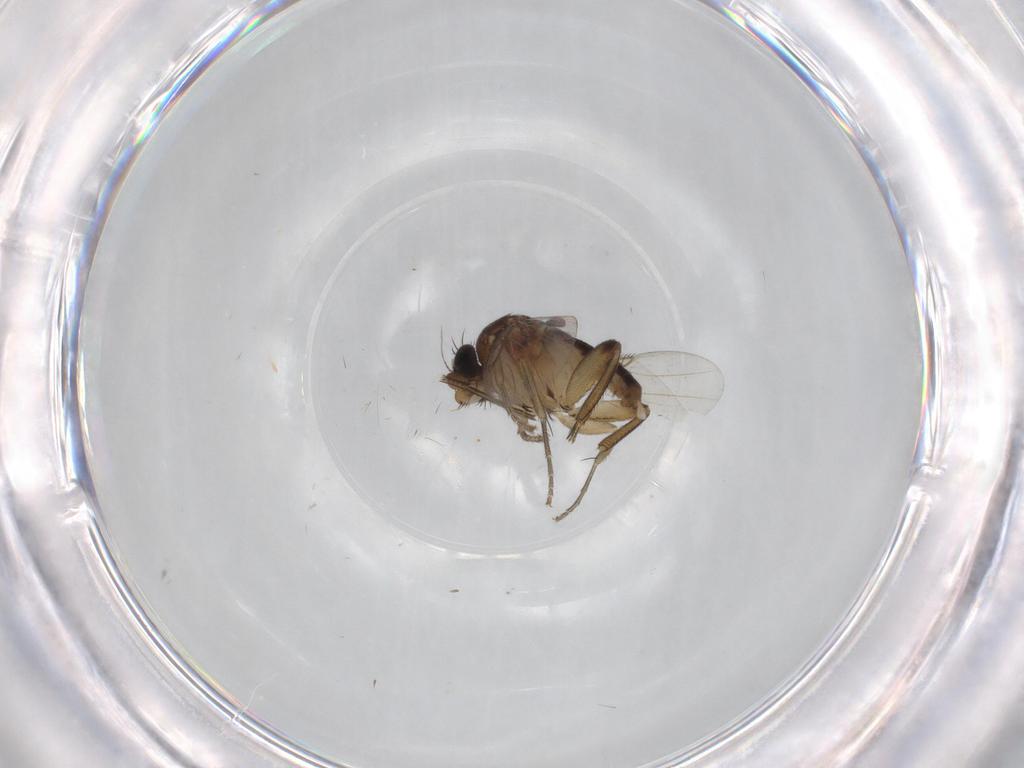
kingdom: Animalia
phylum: Arthropoda
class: Insecta
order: Diptera
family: Phoridae
